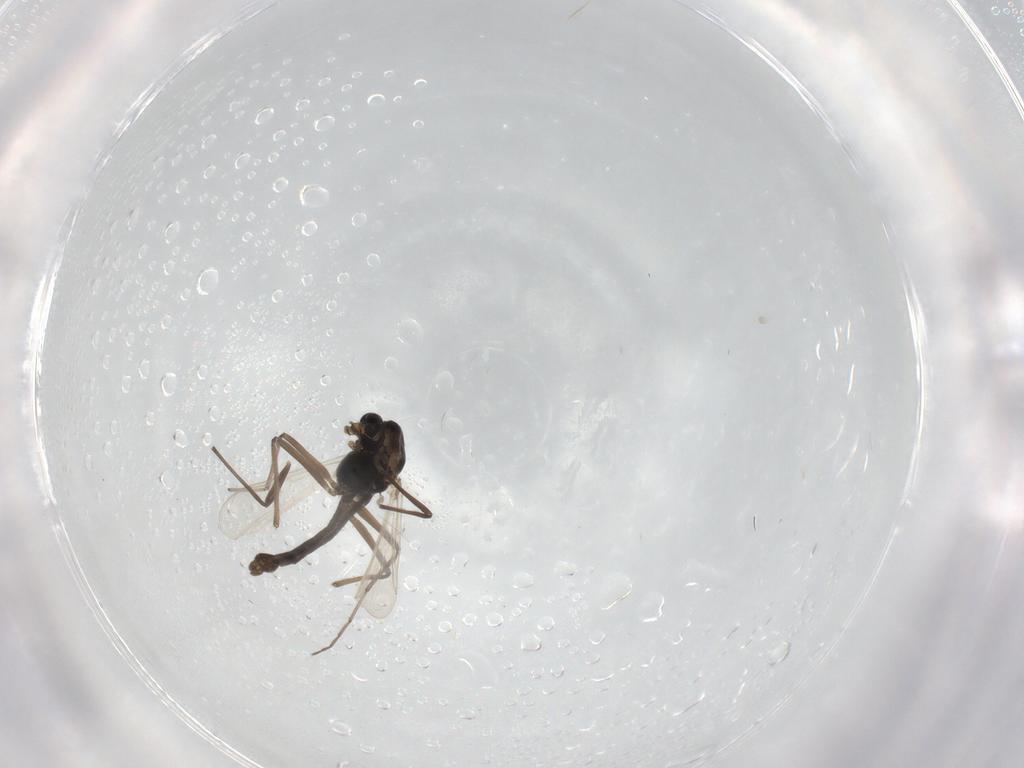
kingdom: Animalia
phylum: Arthropoda
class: Insecta
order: Diptera
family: Chironomidae
